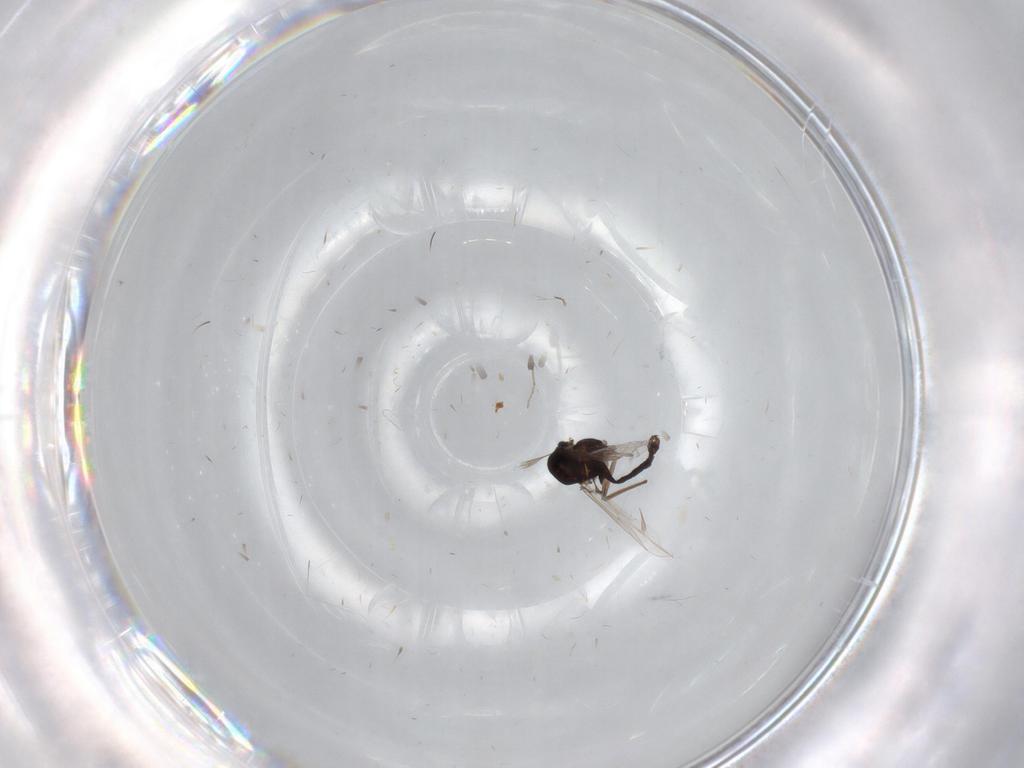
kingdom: Animalia
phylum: Arthropoda
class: Insecta
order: Diptera
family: Chironomidae
